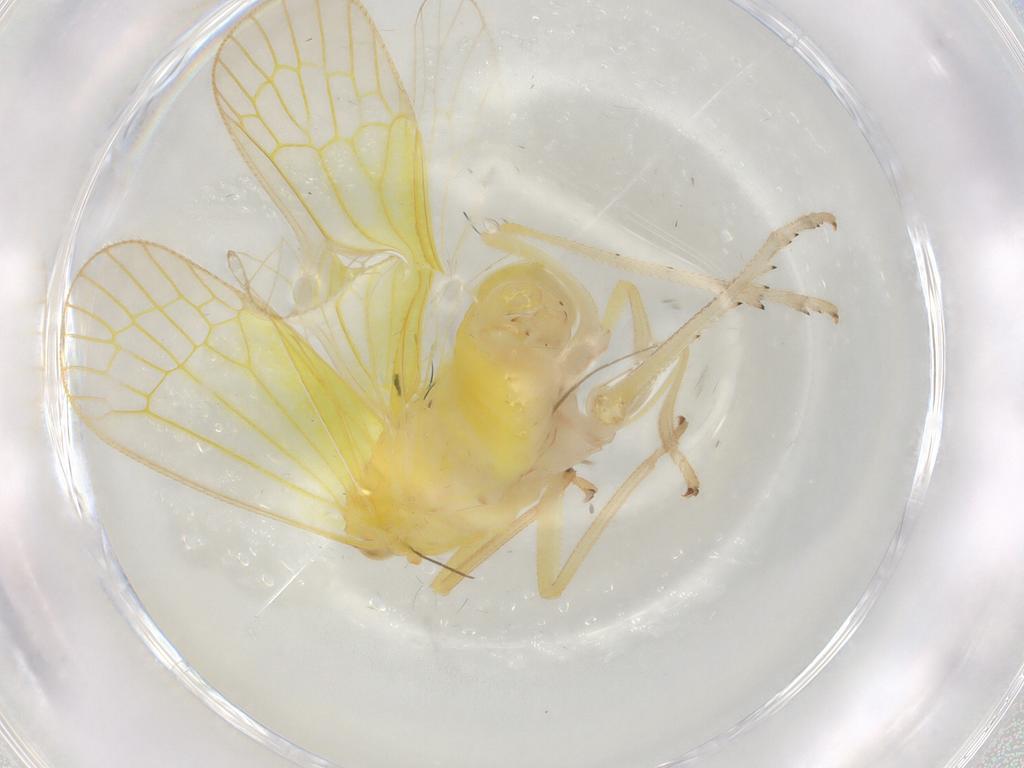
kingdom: Animalia
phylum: Arthropoda
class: Insecta
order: Hemiptera
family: Tropiduchidae
